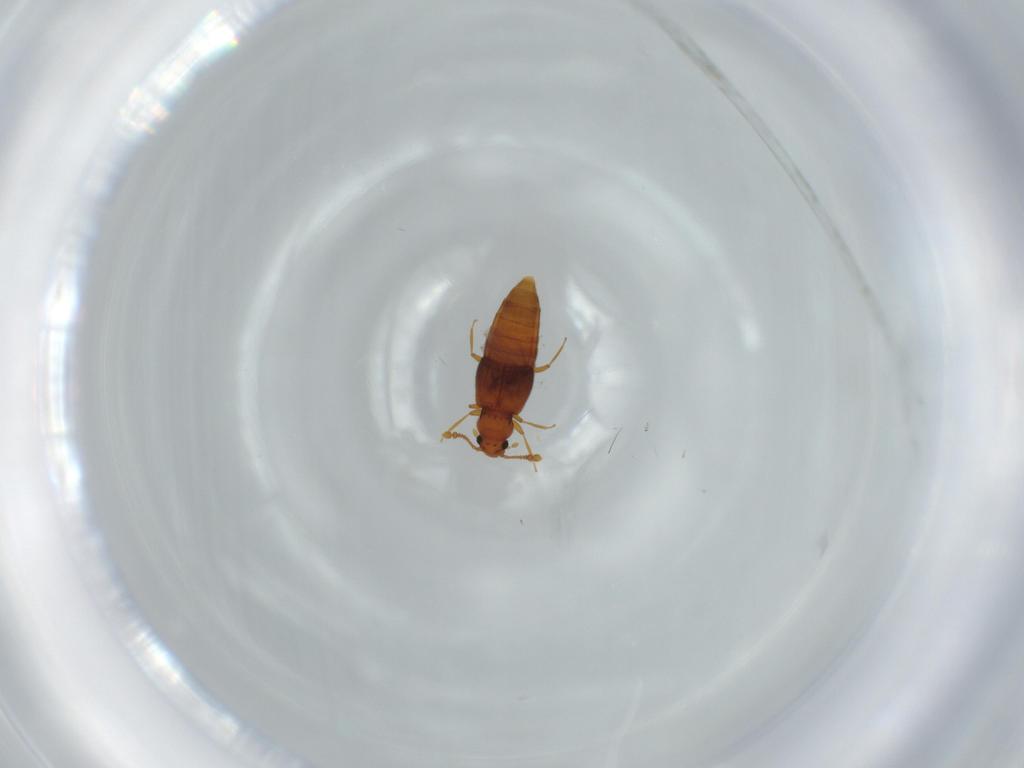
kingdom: Animalia
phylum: Arthropoda
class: Insecta
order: Coleoptera
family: Staphylinidae
